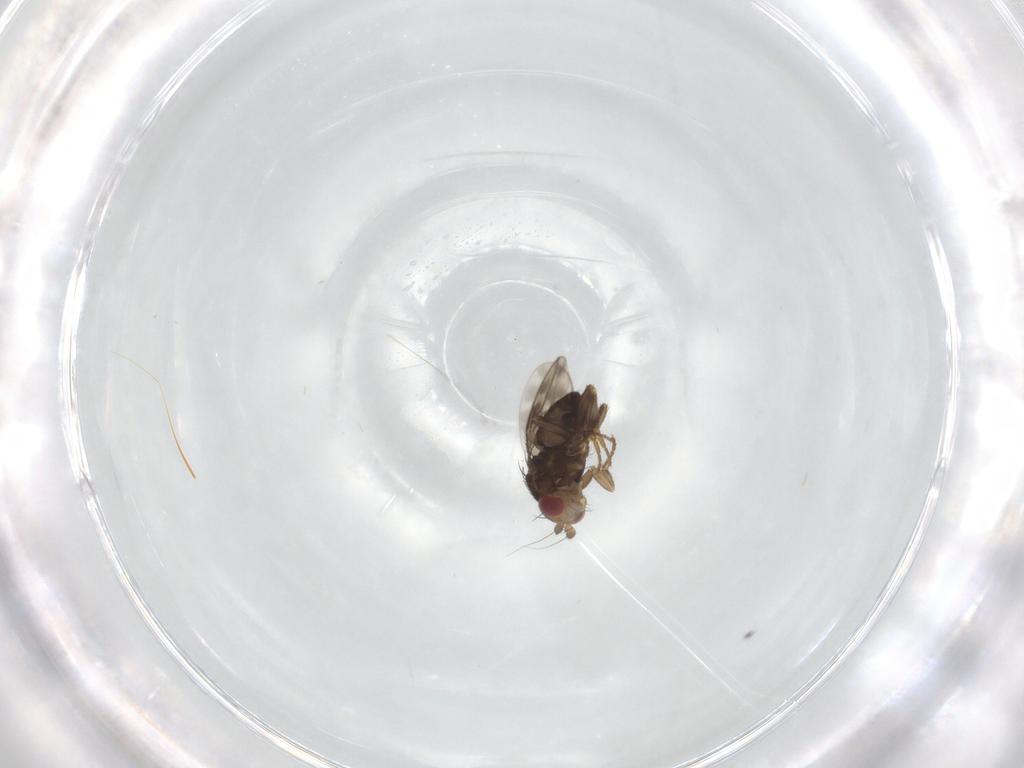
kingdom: Animalia
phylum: Arthropoda
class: Insecta
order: Diptera
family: Sphaeroceridae
